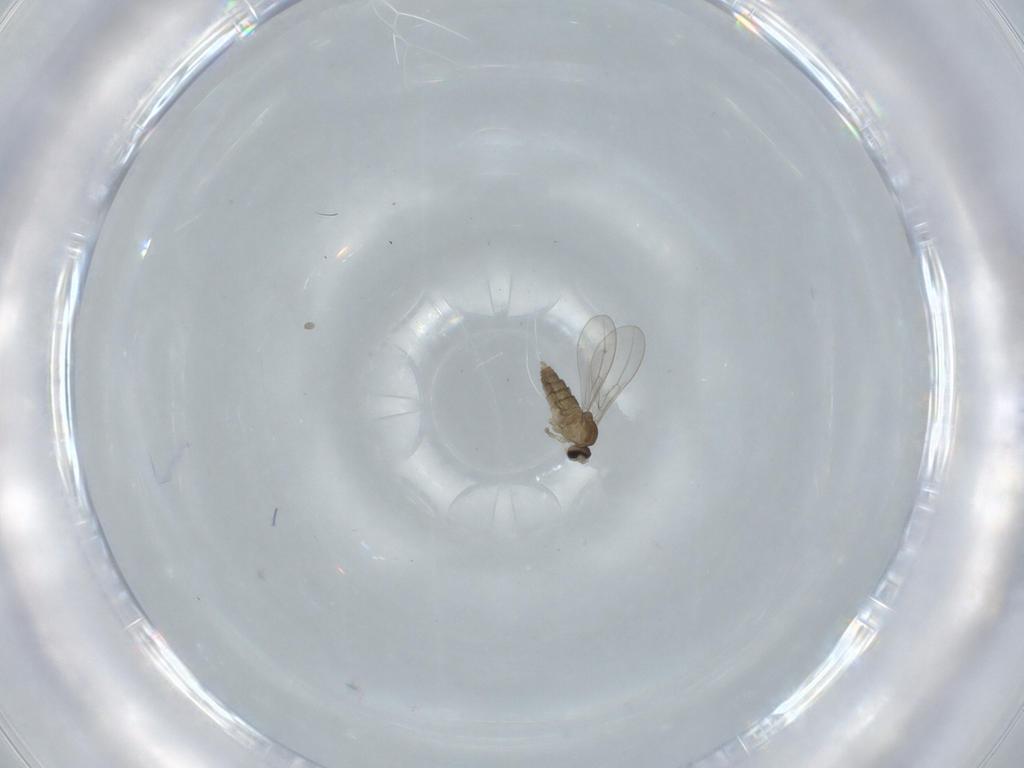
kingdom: Animalia
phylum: Arthropoda
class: Insecta
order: Diptera
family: Cecidomyiidae
